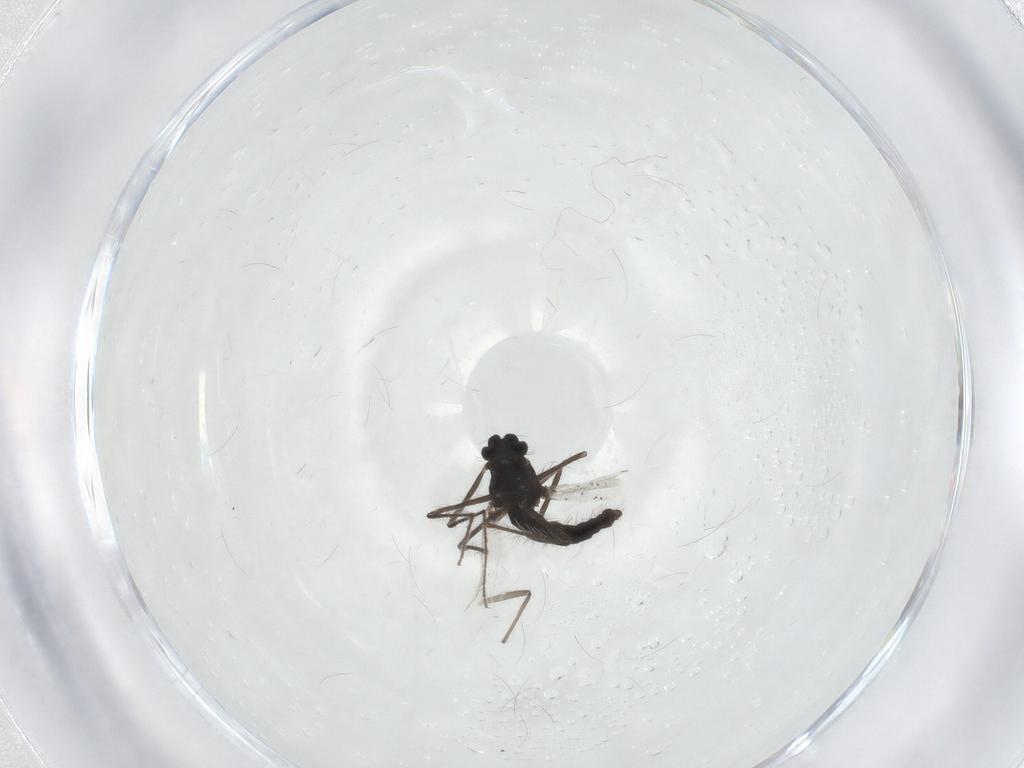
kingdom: Animalia
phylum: Arthropoda
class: Insecta
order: Diptera
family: Chironomidae
